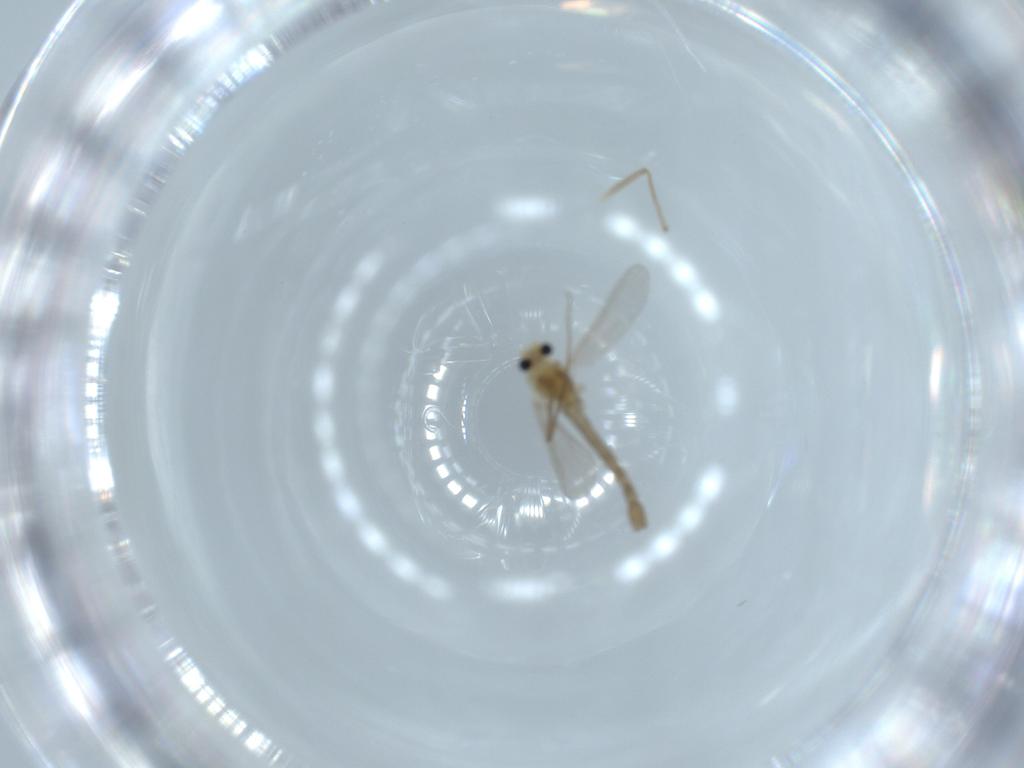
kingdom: Animalia
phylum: Arthropoda
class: Insecta
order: Diptera
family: Chironomidae
